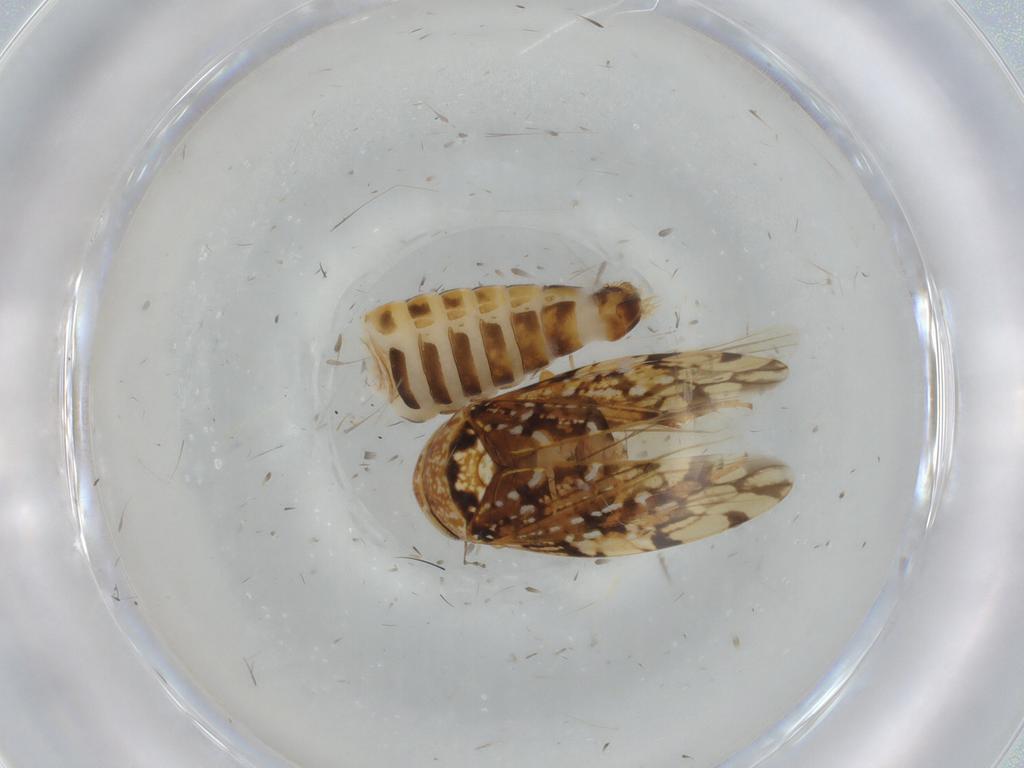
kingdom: Animalia
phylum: Arthropoda
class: Insecta
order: Hemiptera
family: Cicadellidae
